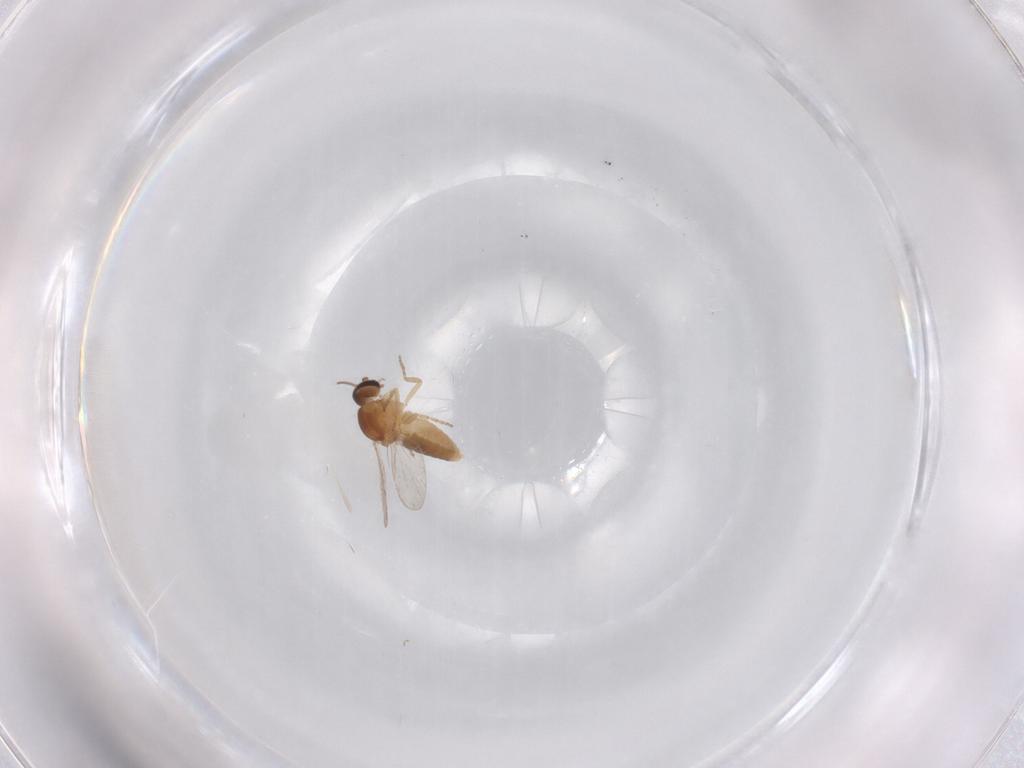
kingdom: Animalia
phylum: Arthropoda
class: Insecta
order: Diptera
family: Ceratopogonidae
